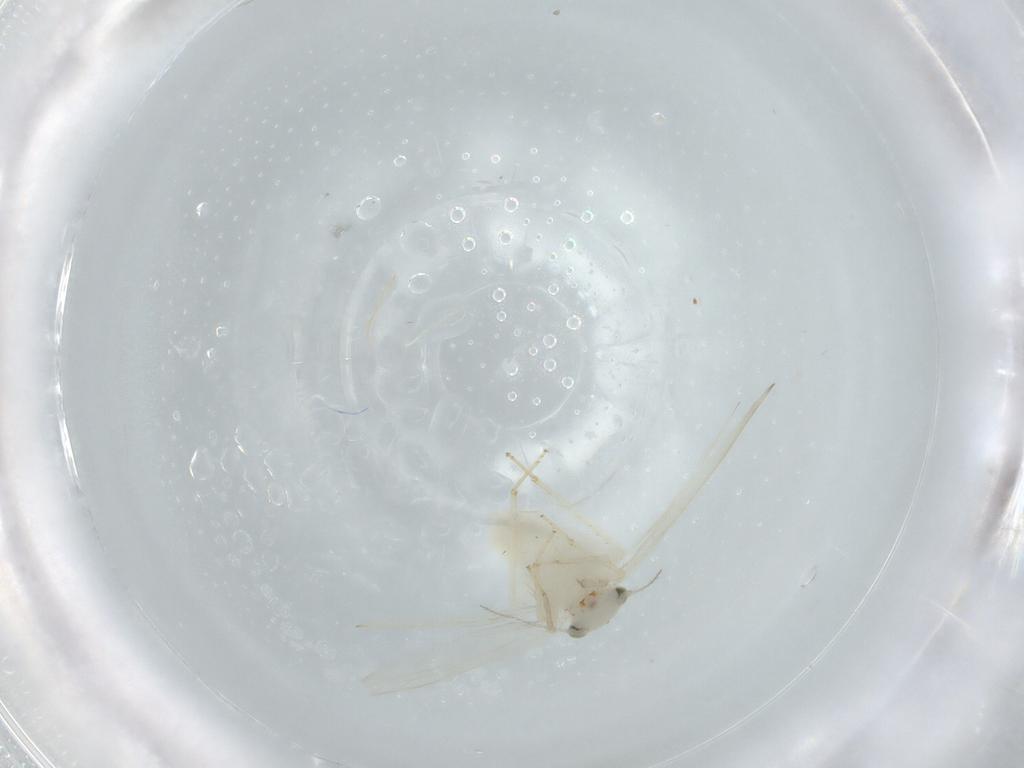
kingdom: Animalia
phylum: Arthropoda
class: Insecta
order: Psocodea
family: Lepidopsocidae
